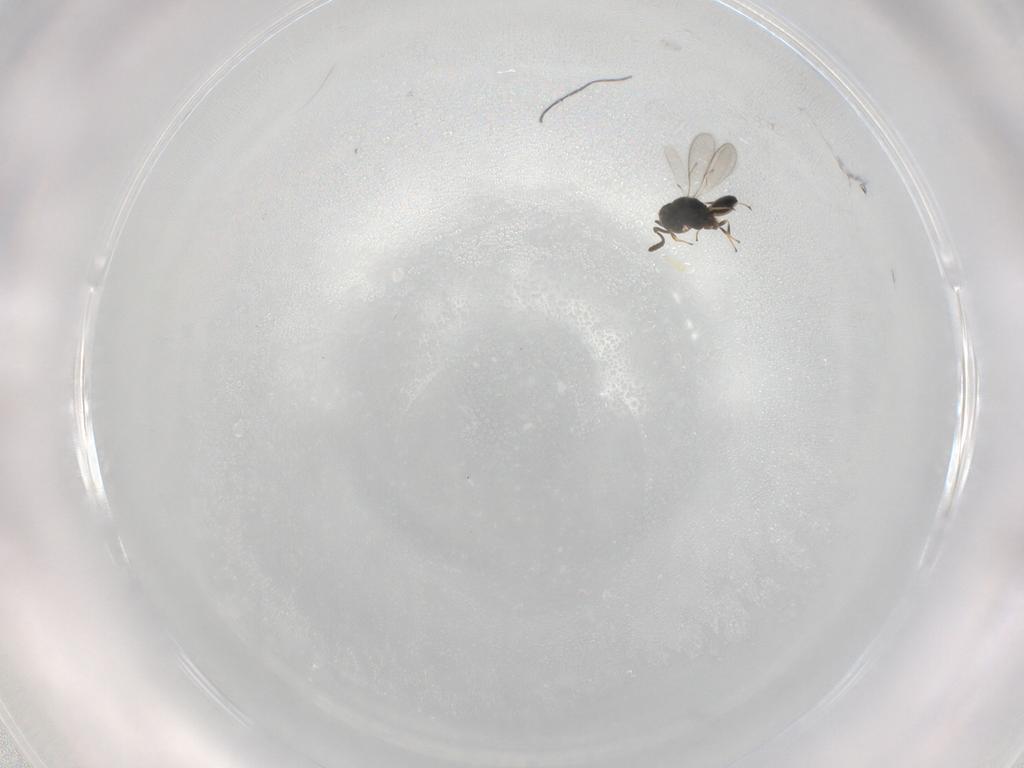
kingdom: Animalia
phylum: Arthropoda
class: Insecta
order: Hymenoptera
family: Scelionidae
